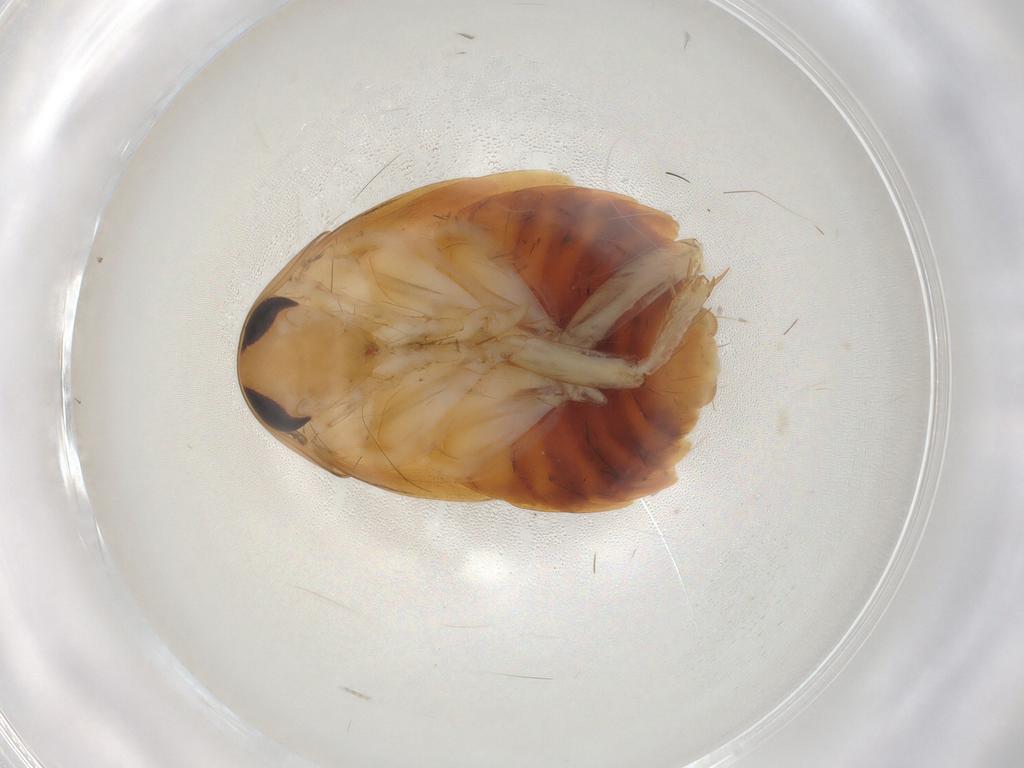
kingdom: Animalia
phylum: Arthropoda
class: Insecta
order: Blattodea
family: Blaberidae
